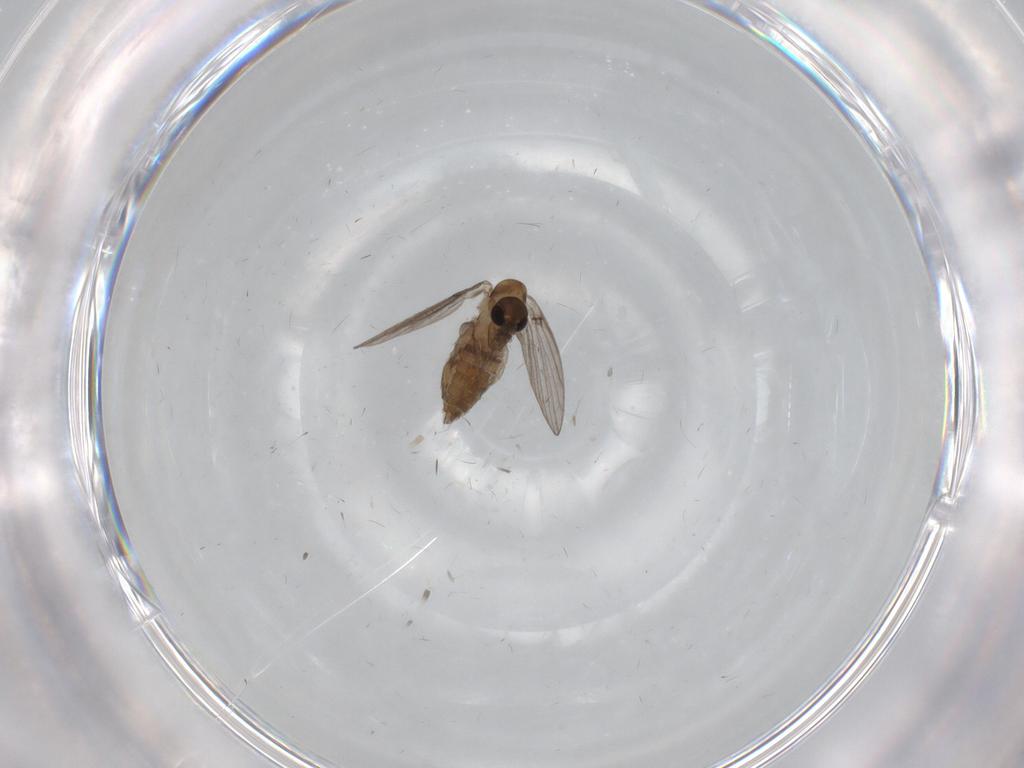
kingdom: Animalia
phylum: Arthropoda
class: Insecta
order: Diptera
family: Psychodidae
